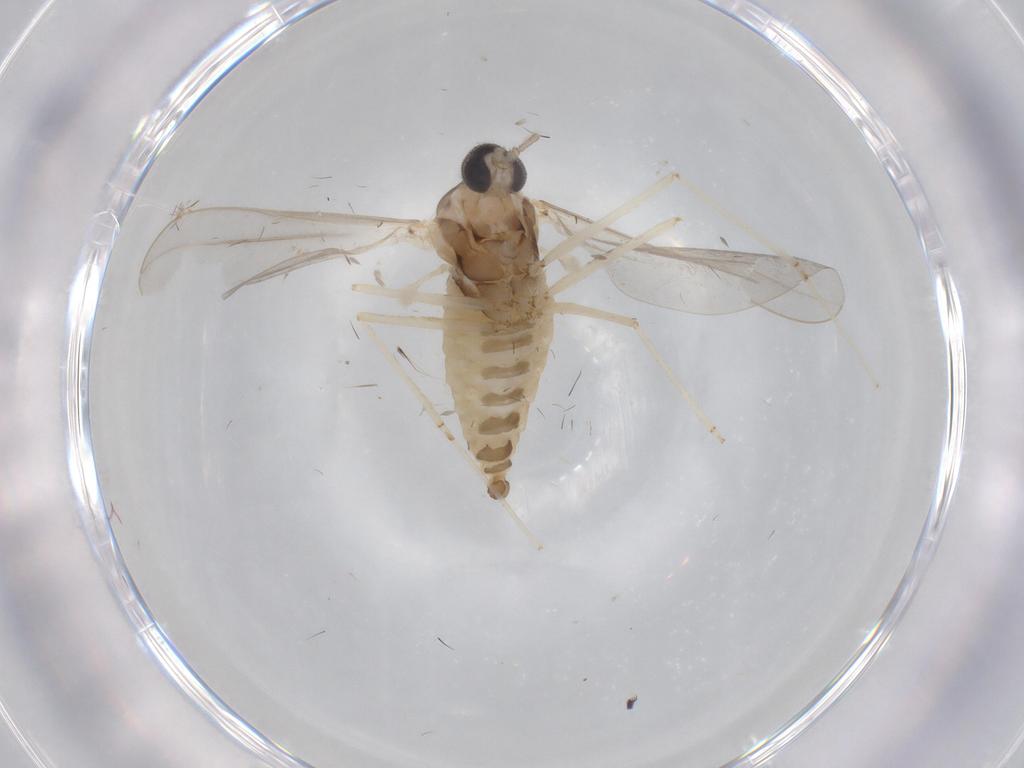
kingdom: Animalia
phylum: Arthropoda
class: Insecta
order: Diptera
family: Cecidomyiidae
